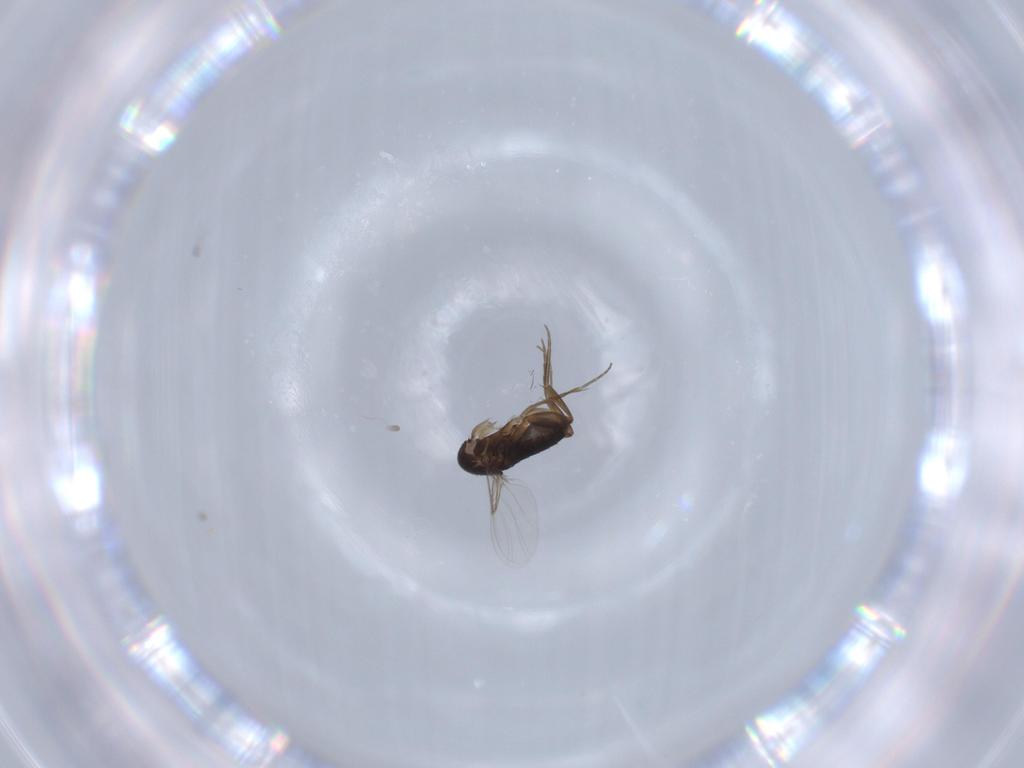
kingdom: Animalia
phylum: Arthropoda
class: Insecta
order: Diptera
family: Phoridae
